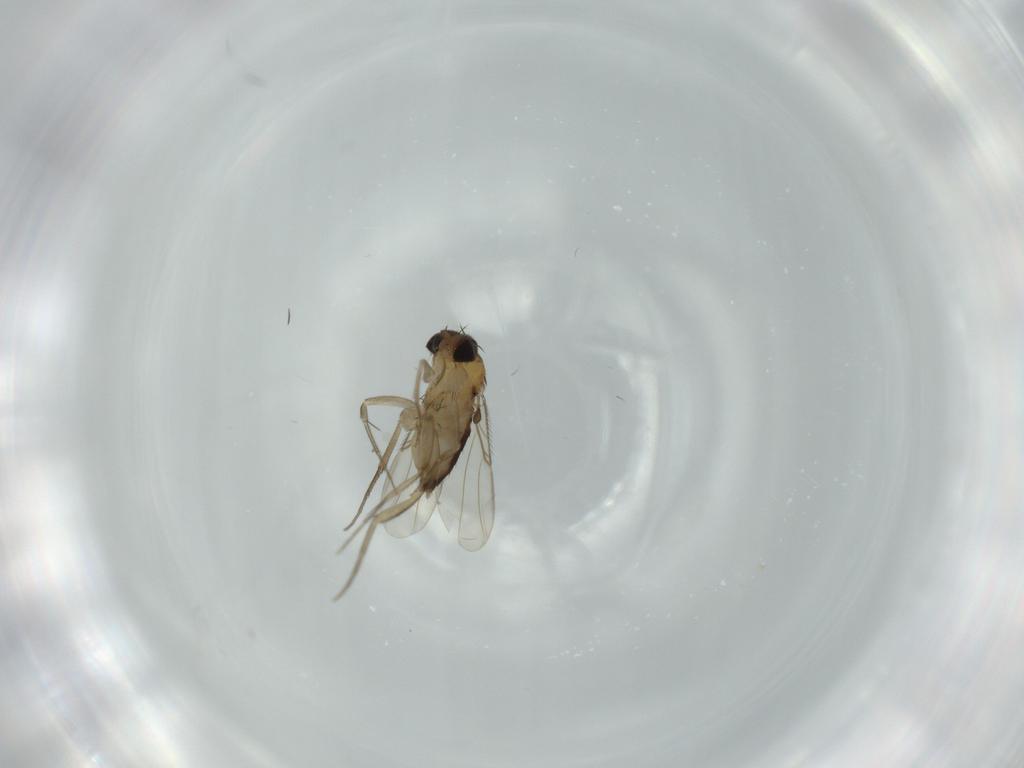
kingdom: Animalia
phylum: Arthropoda
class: Insecta
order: Diptera
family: Phoridae
